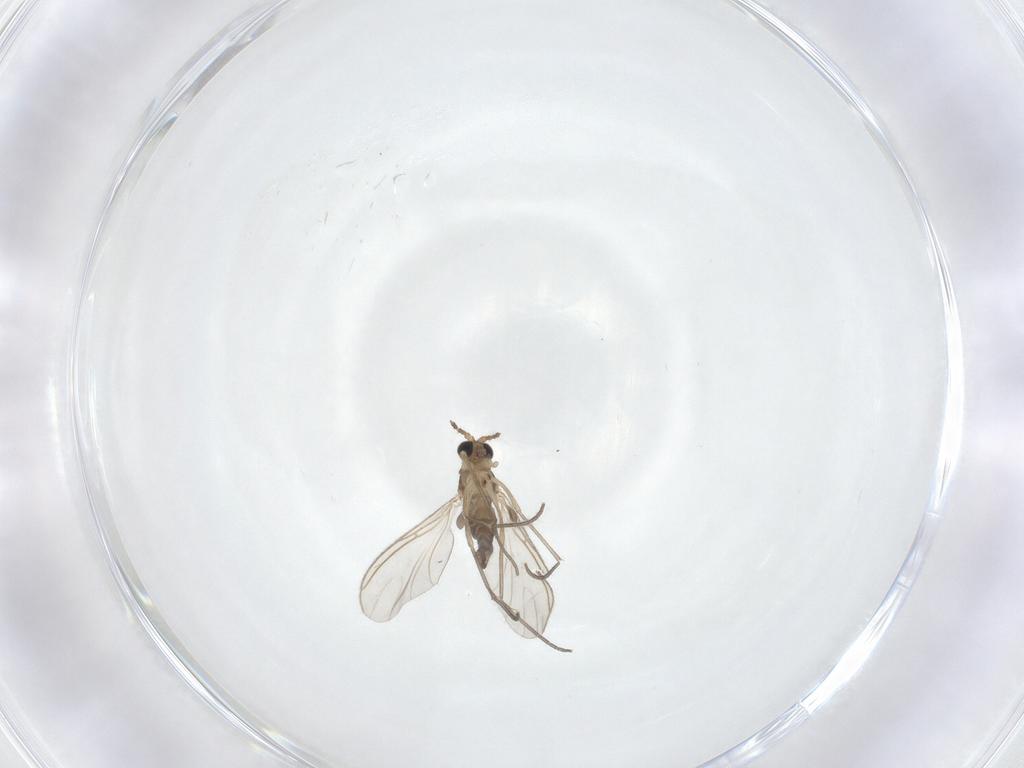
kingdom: Animalia
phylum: Arthropoda
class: Insecta
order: Diptera
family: Sciaridae
